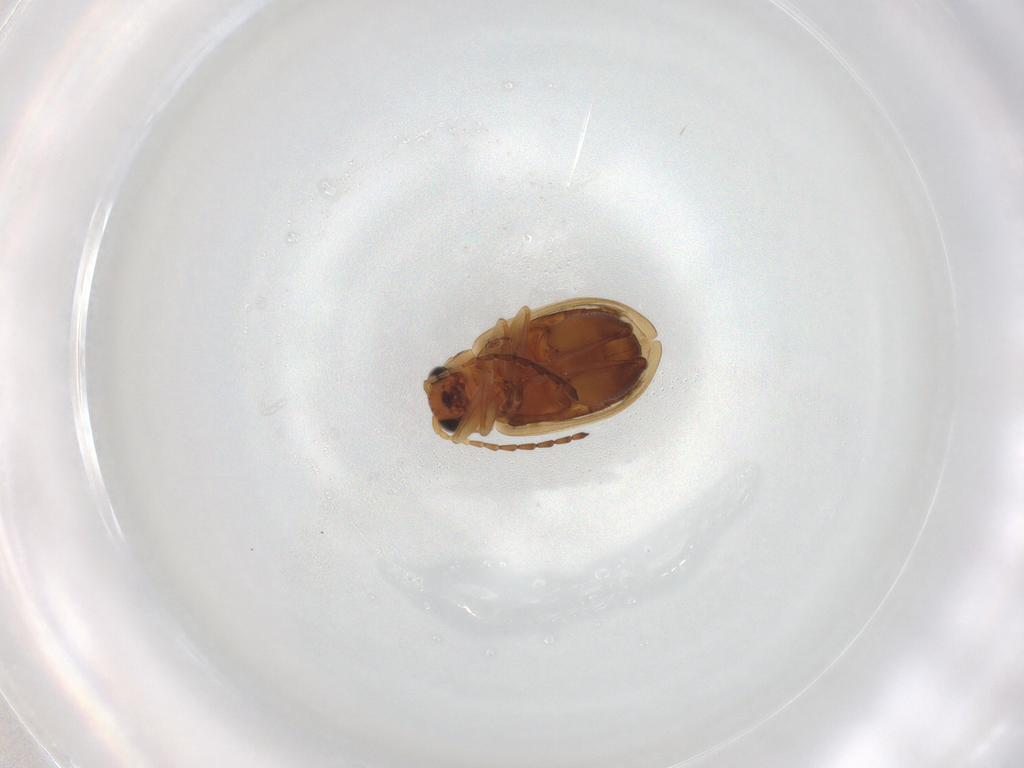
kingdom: Animalia
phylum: Arthropoda
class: Insecta
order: Coleoptera
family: Chrysomelidae
